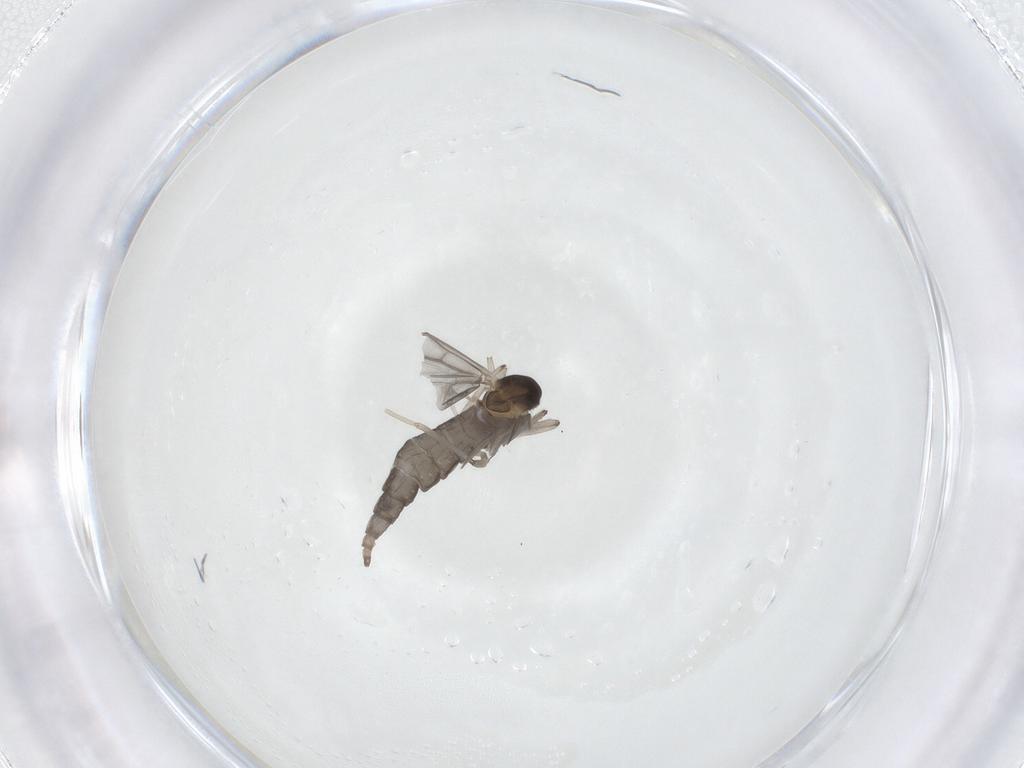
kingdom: Animalia
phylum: Arthropoda
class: Insecta
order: Diptera
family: Cecidomyiidae
